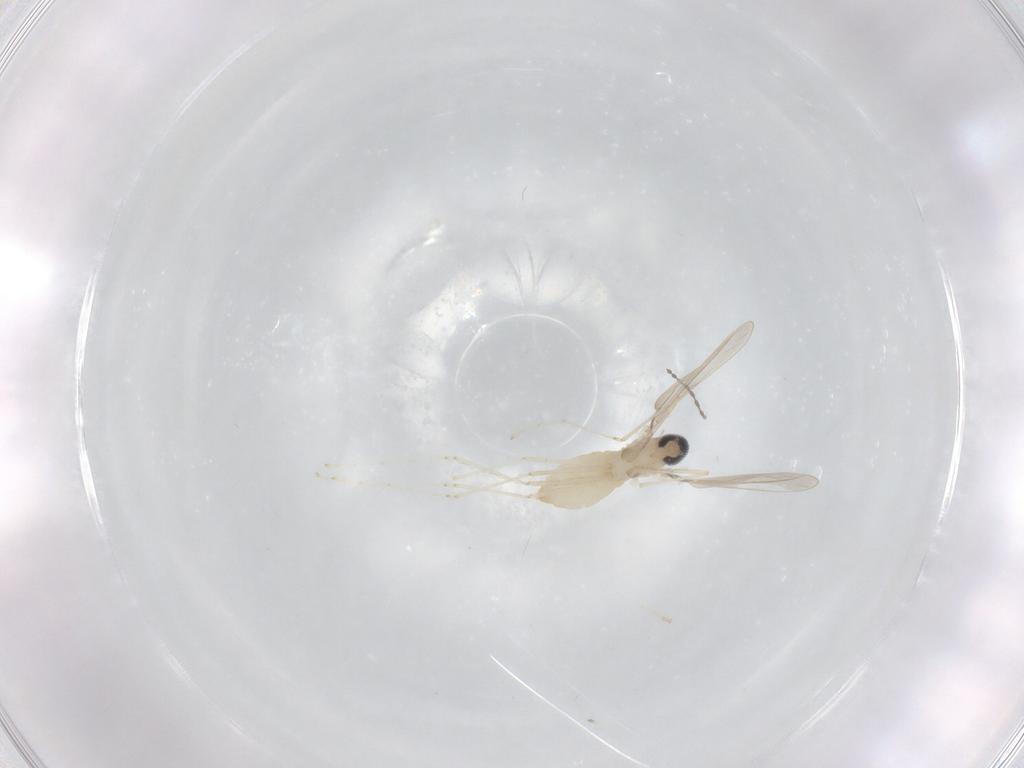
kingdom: Animalia
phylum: Arthropoda
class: Insecta
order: Diptera
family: Cecidomyiidae
